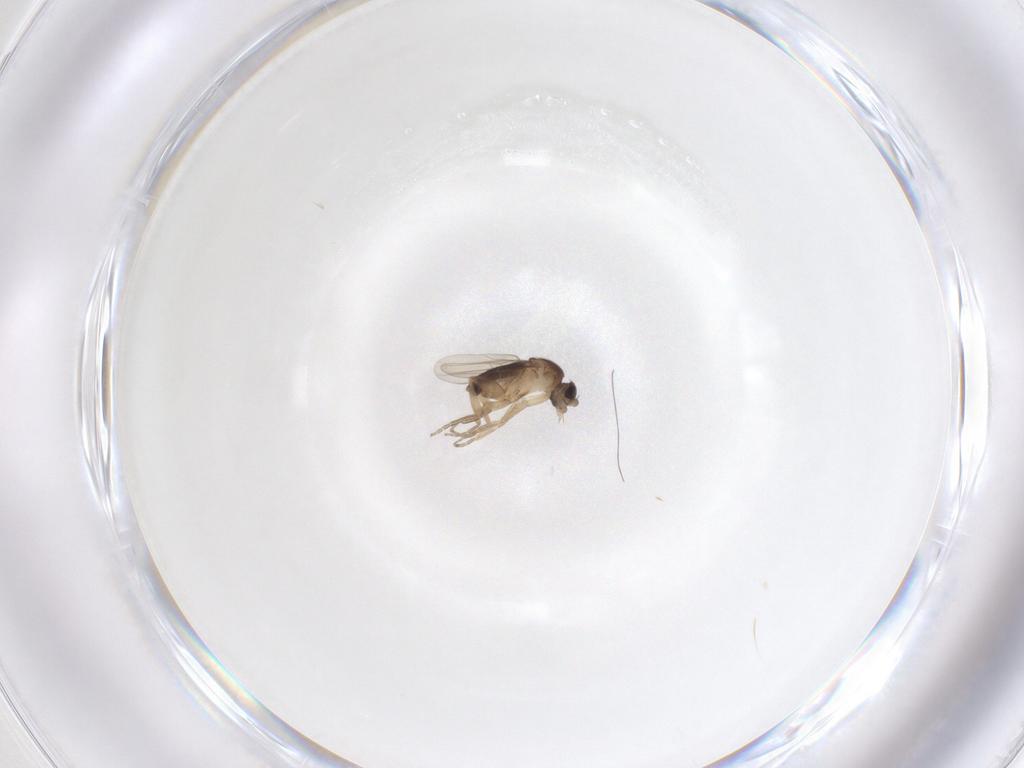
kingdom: Animalia
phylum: Arthropoda
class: Insecta
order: Diptera
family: Phoridae
